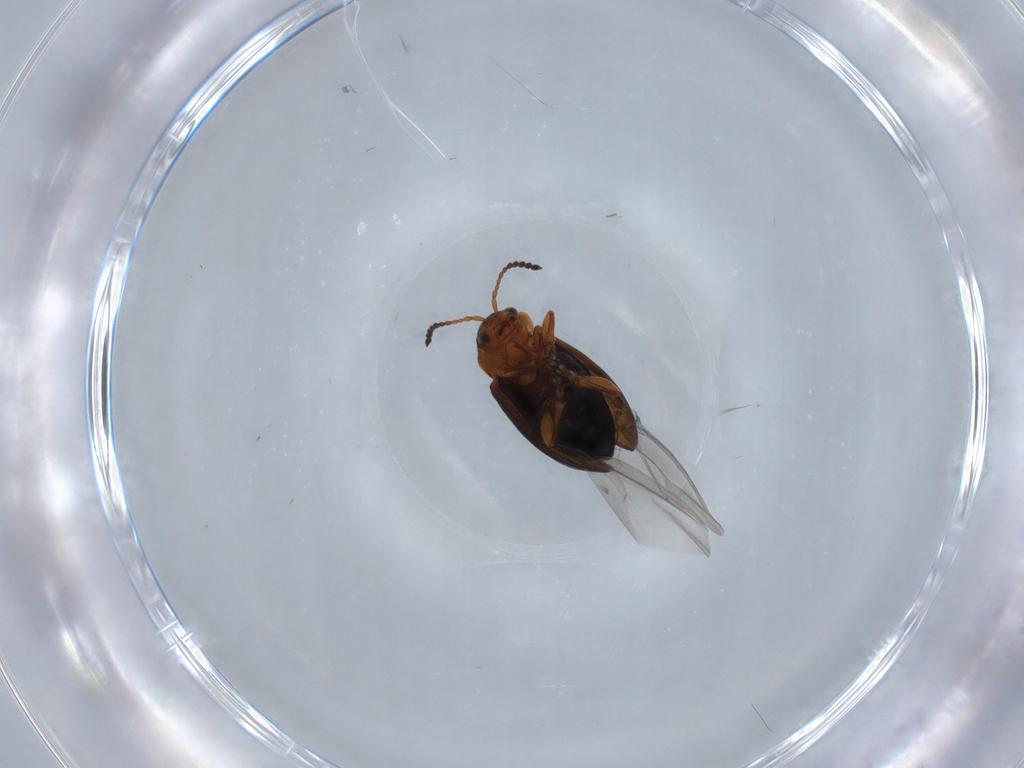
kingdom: Animalia
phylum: Arthropoda
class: Insecta
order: Coleoptera
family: Chrysomelidae
